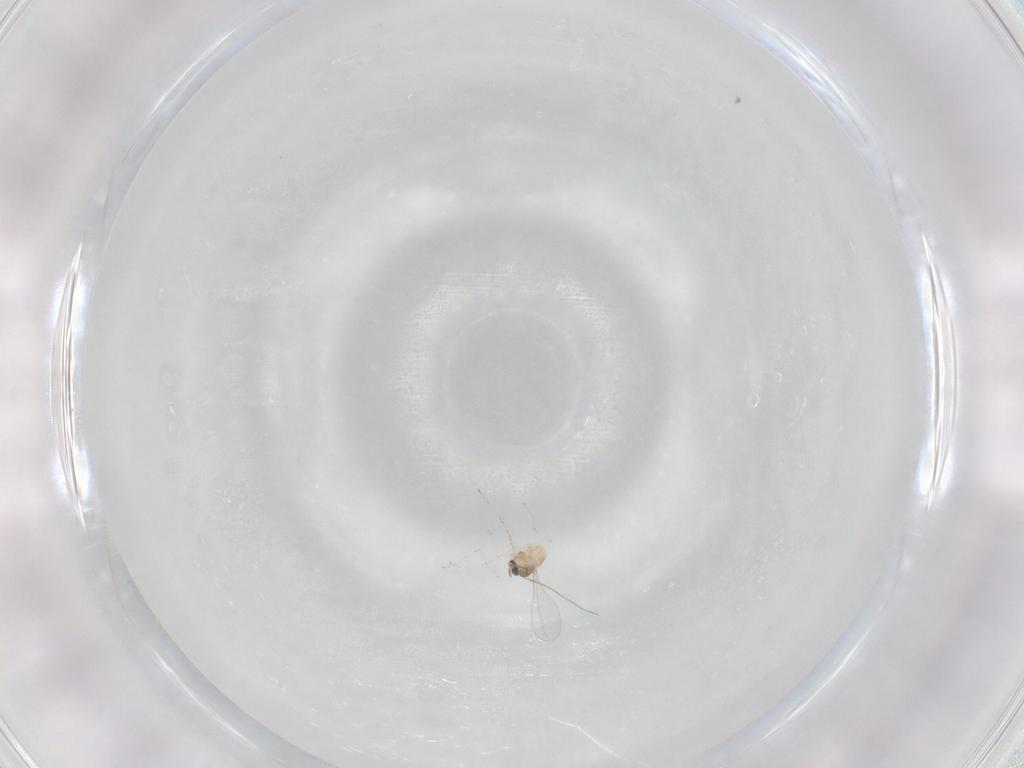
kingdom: Animalia
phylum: Arthropoda
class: Insecta
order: Diptera
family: Cecidomyiidae
